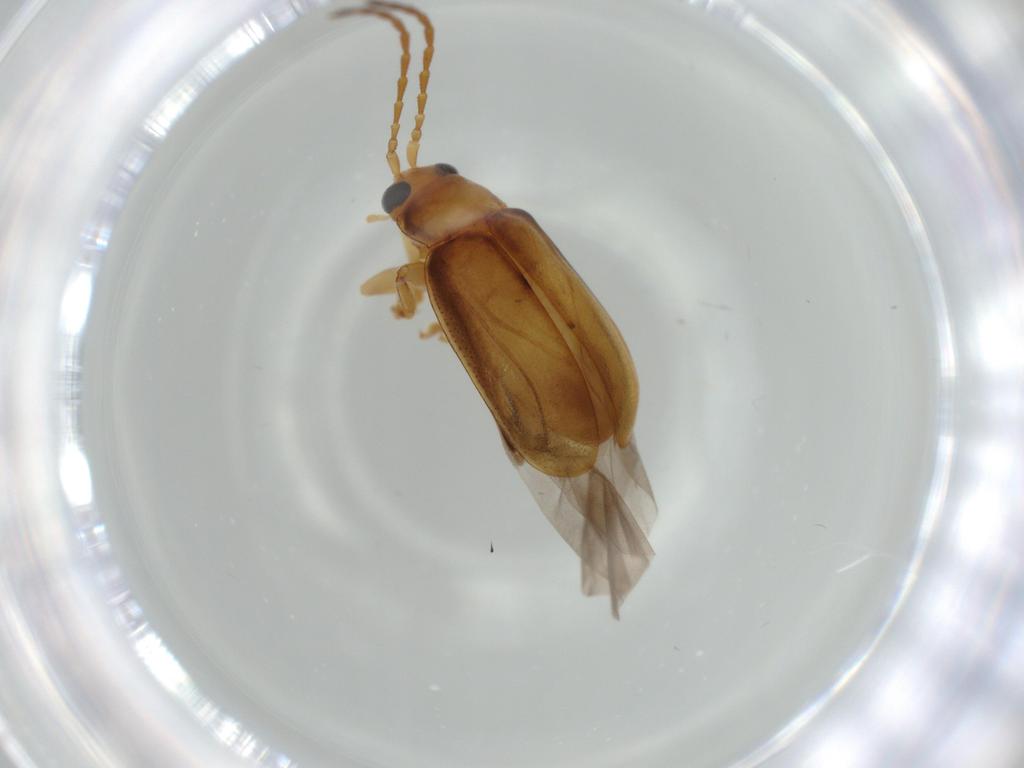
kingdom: Animalia
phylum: Arthropoda
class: Insecta
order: Coleoptera
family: Chrysomelidae
